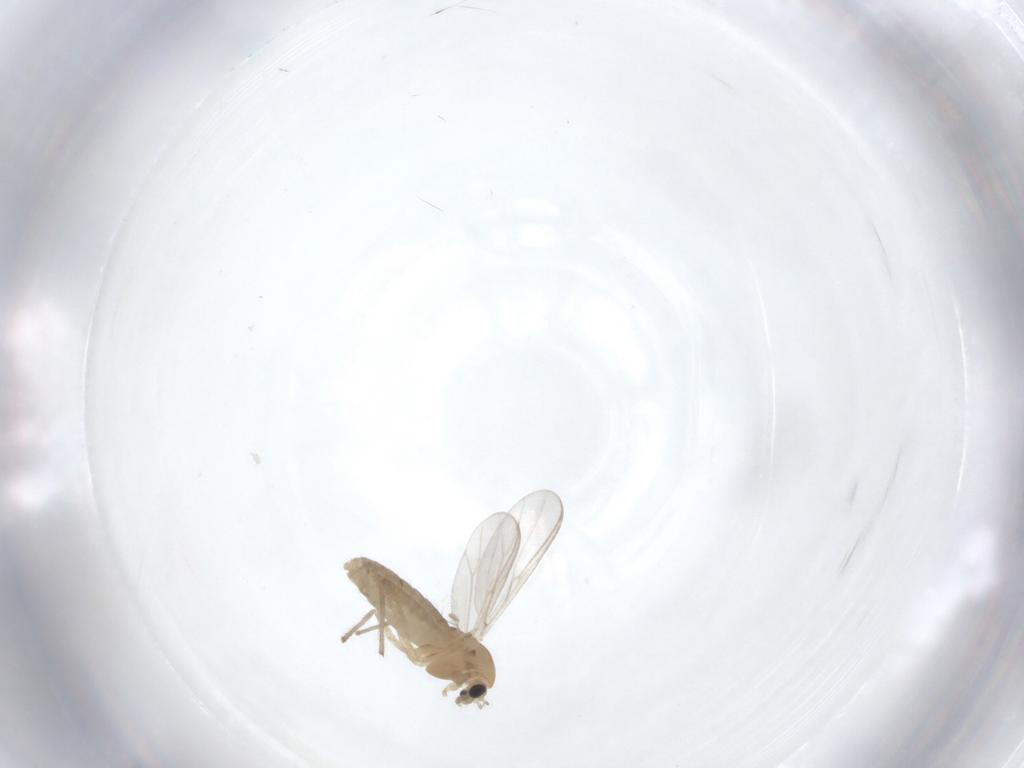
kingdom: Animalia
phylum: Arthropoda
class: Insecta
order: Diptera
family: Chironomidae
